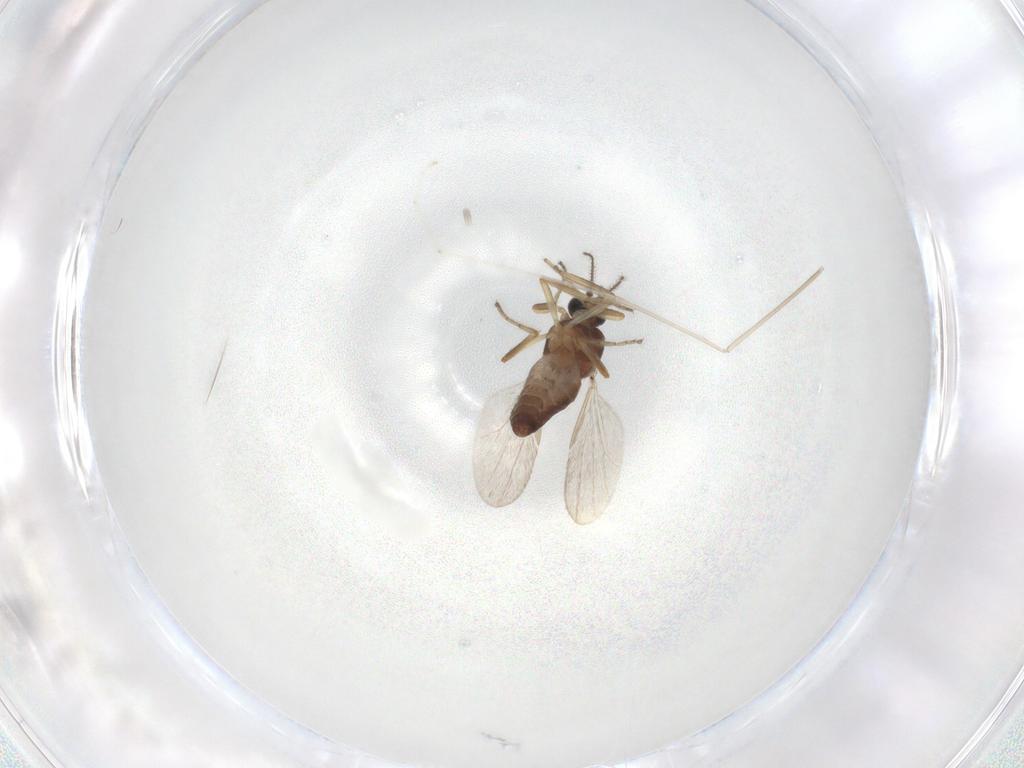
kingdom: Animalia
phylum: Arthropoda
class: Insecta
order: Diptera
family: Ceratopogonidae
